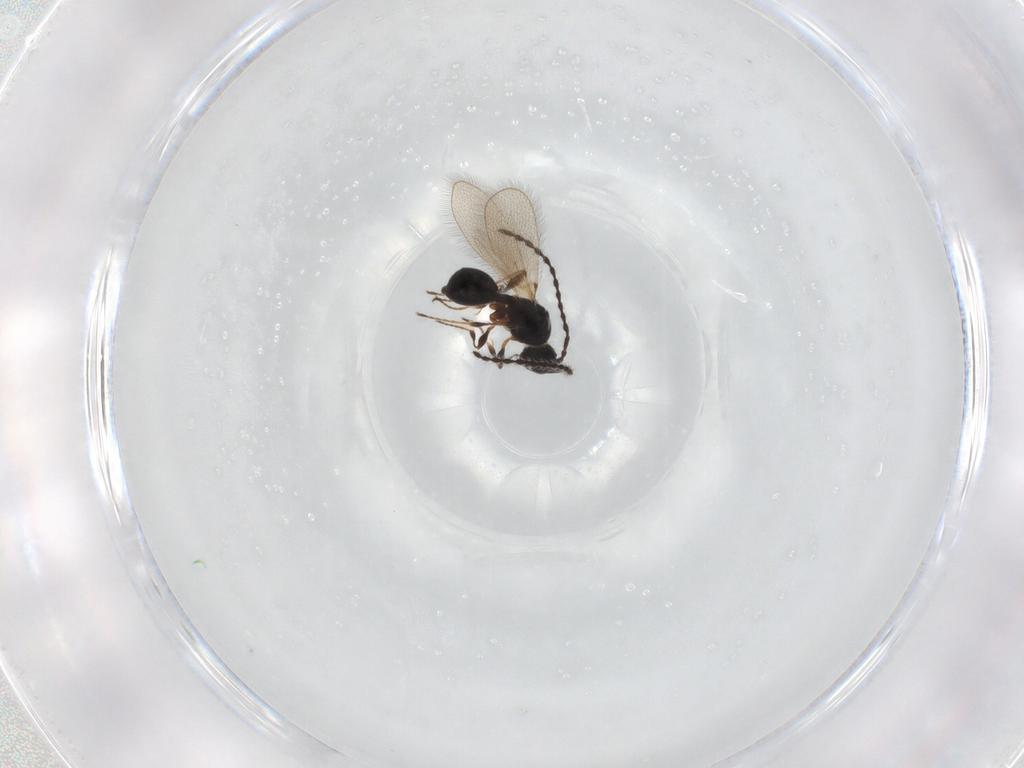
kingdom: Animalia
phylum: Arthropoda
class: Insecta
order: Hymenoptera
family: Diapriidae
